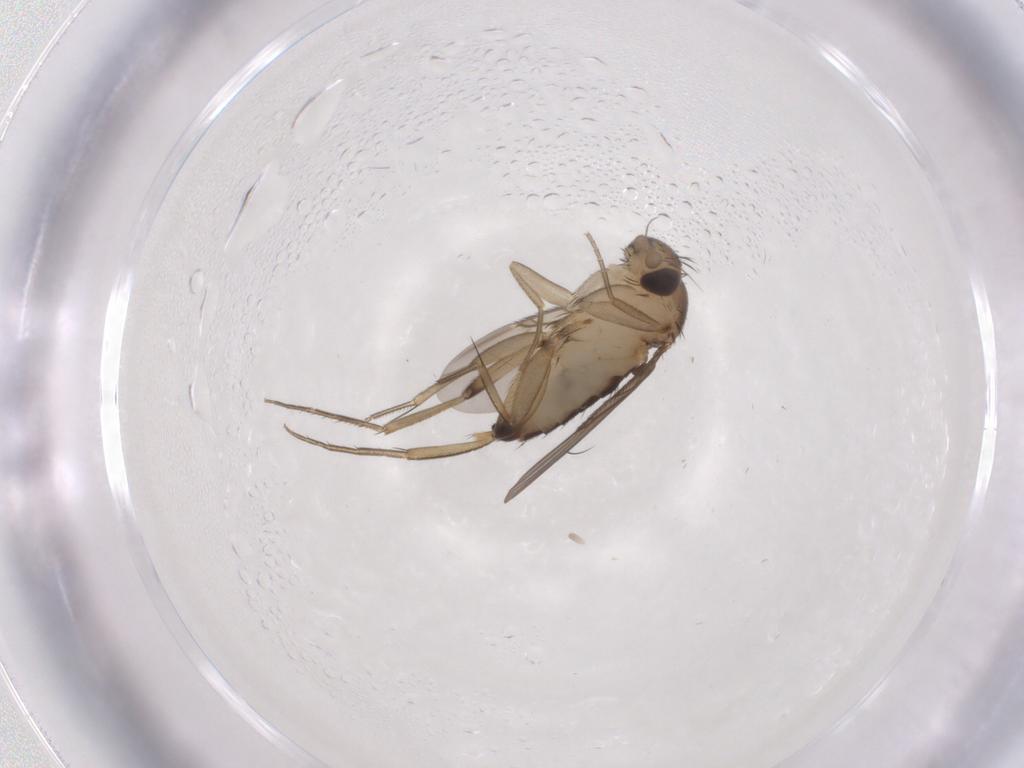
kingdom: Animalia
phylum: Arthropoda
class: Insecta
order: Diptera
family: Phoridae
